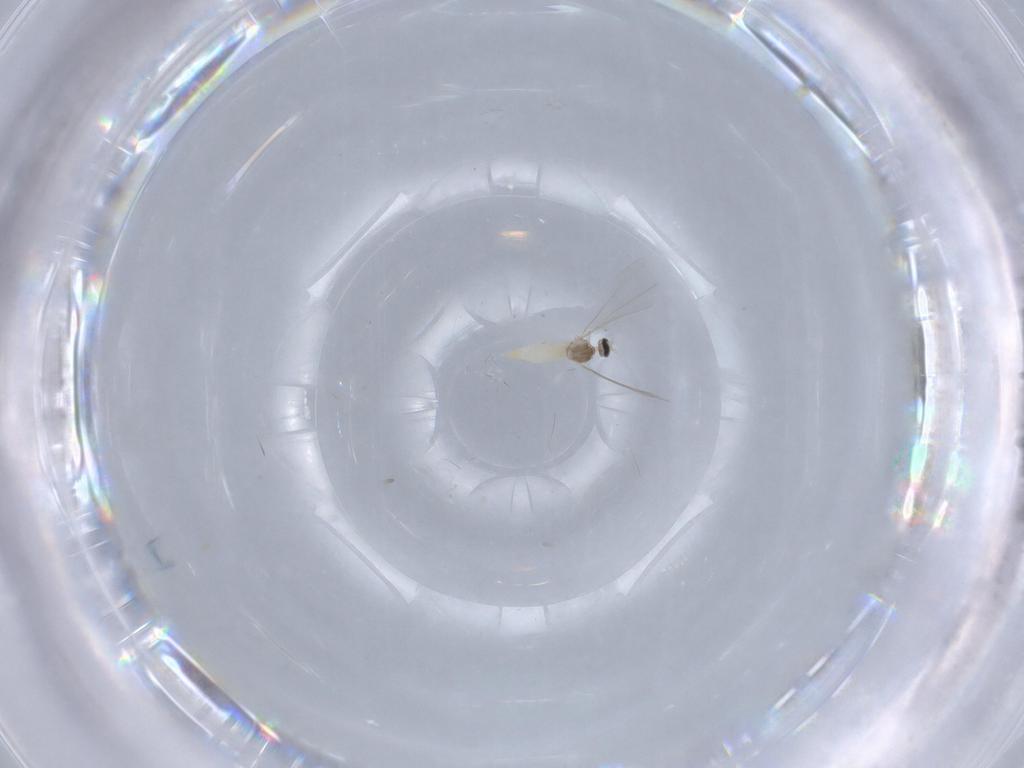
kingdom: Animalia
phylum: Arthropoda
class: Insecta
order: Diptera
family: Cecidomyiidae
